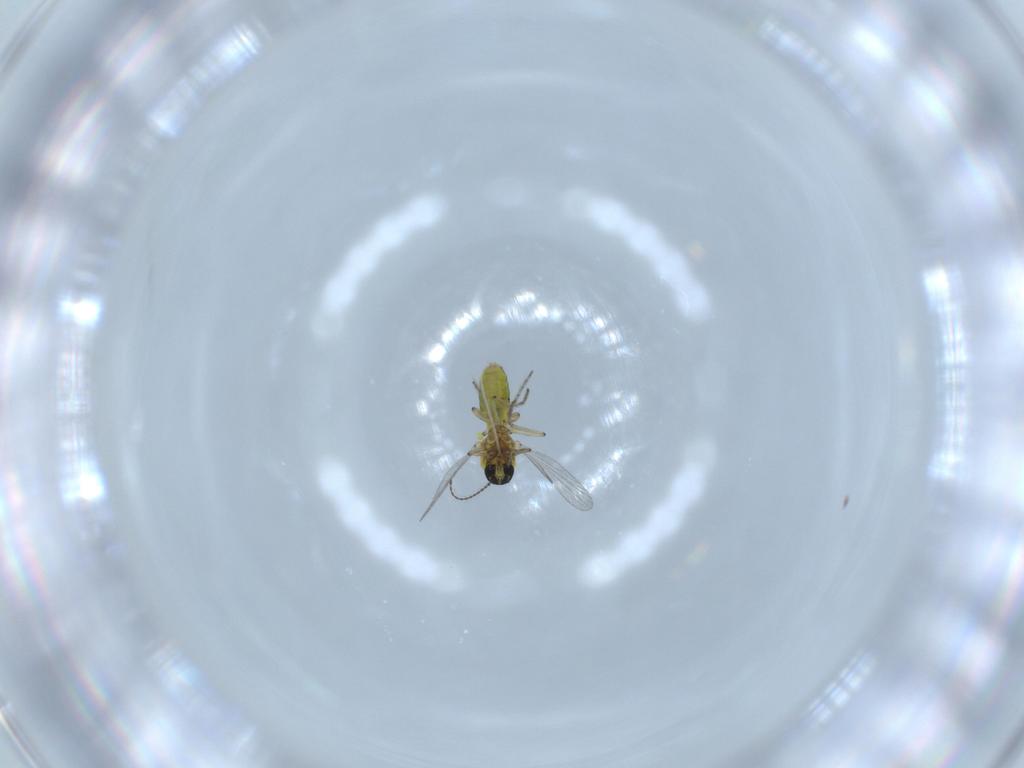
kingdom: Animalia
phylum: Arthropoda
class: Insecta
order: Diptera
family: Ceratopogonidae
